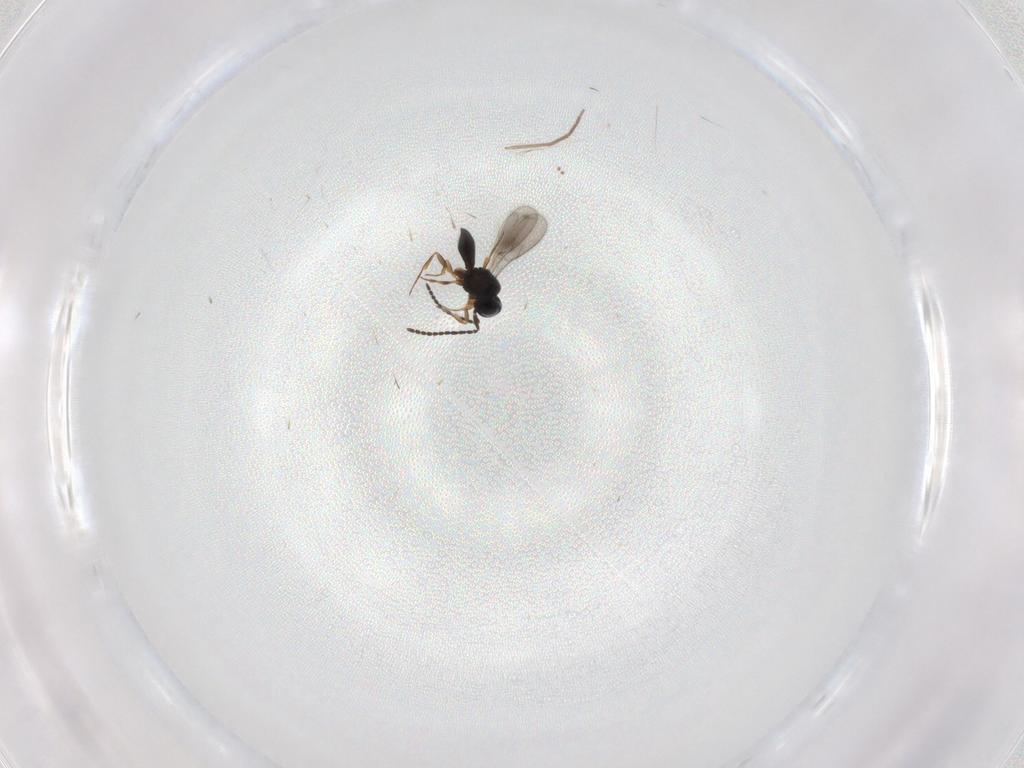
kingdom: Animalia
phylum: Arthropoda
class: Insecta
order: Hymenoptera
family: Scelionidae
